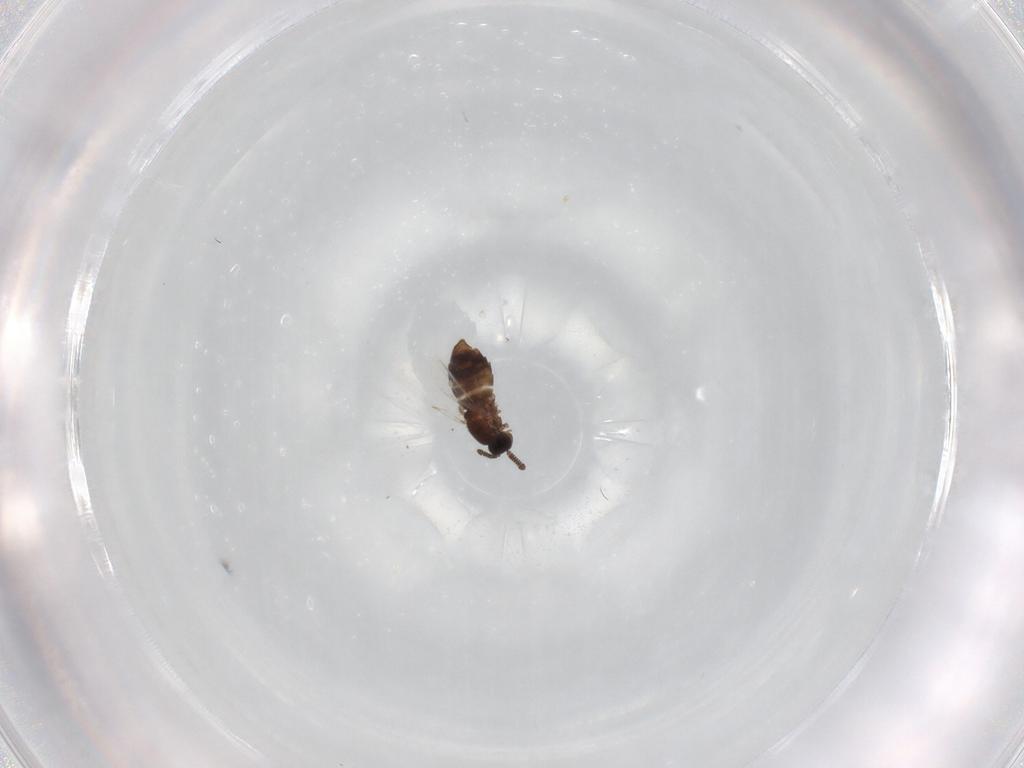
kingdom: Animalia
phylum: Arthropoda
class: Insecta
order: Diptera
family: Scatopsidae
